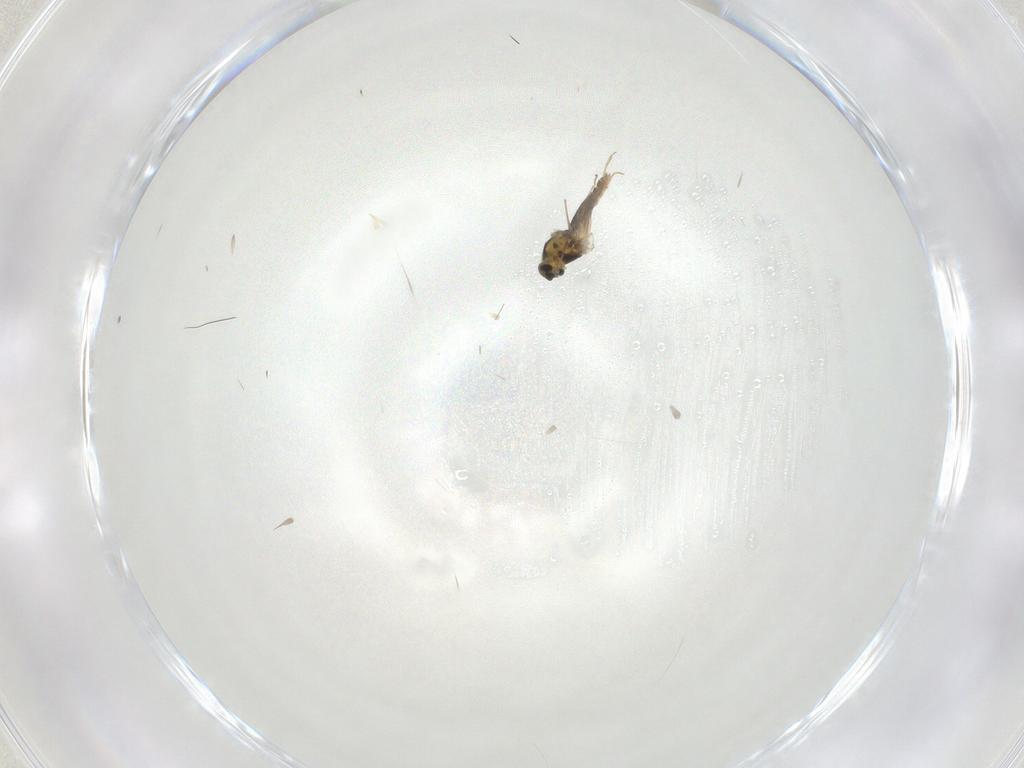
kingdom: Animalia
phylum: Arthropoda
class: Insecta
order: Diptera
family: Chironomidae
